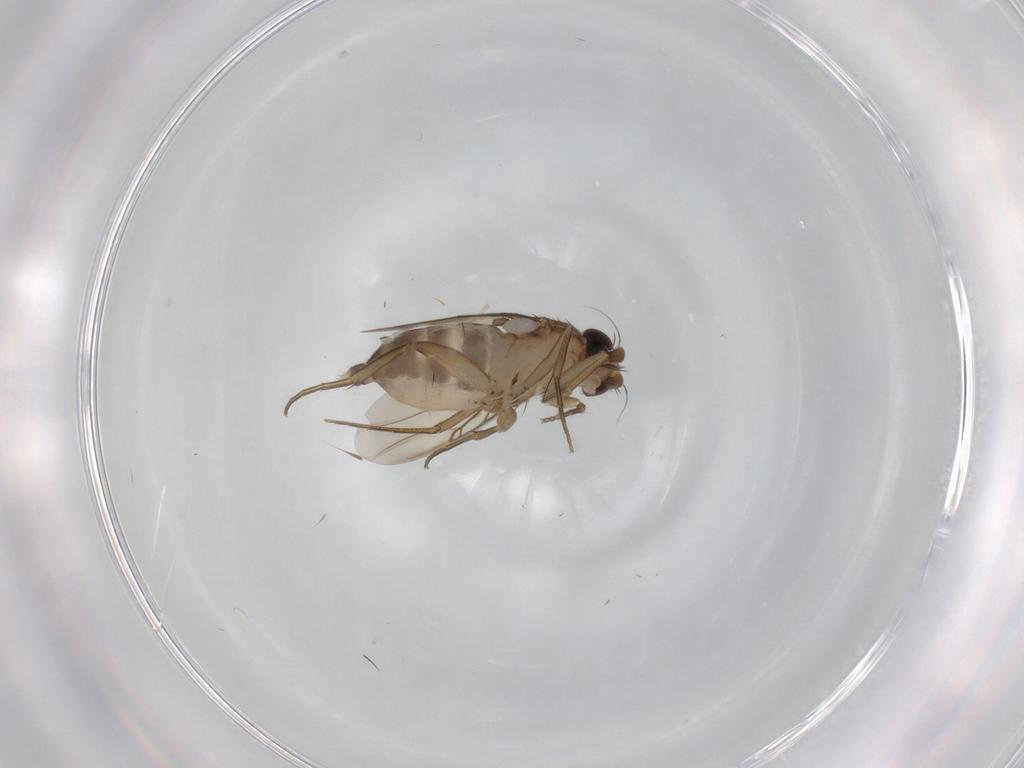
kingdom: Animalia
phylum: Arthropoda
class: Insecta
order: Diptera
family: Phoridae
